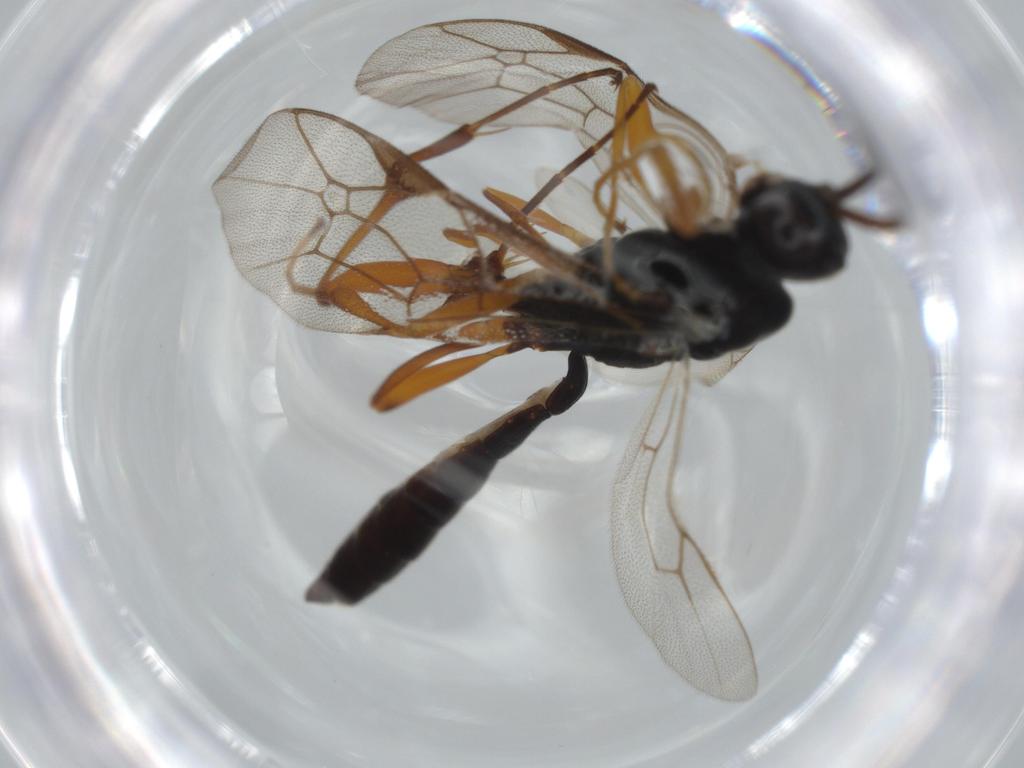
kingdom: Animalia
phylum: Arthropoda
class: Insecta
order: Hymenoptera
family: Ichneumonidae
